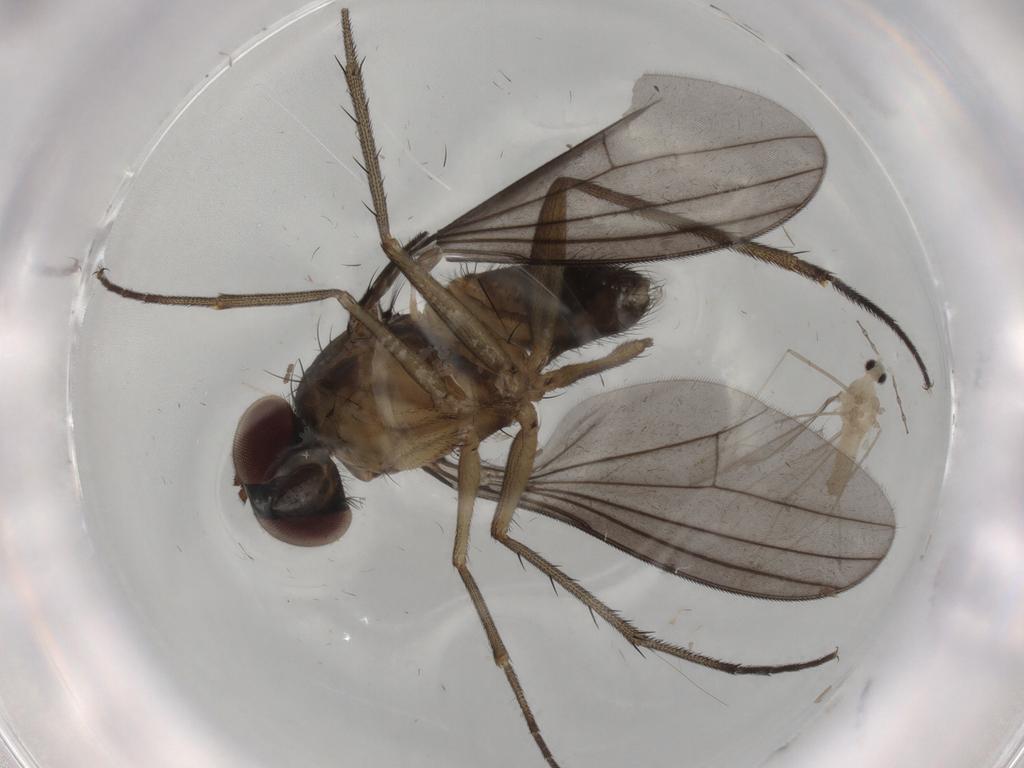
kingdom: Animalia
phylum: Arthropoda
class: Insecta
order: Diptera
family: Cecidomyiidae
